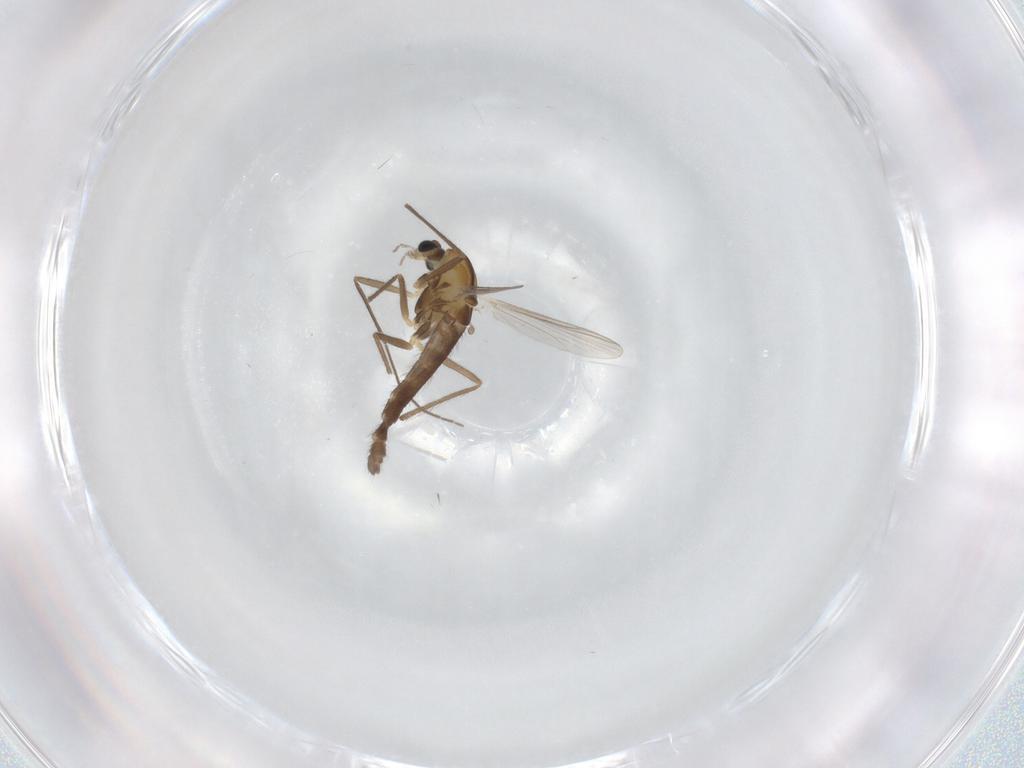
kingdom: Animalia
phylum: Arthropoda
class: Insecta
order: Diptera
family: Chironomidae
